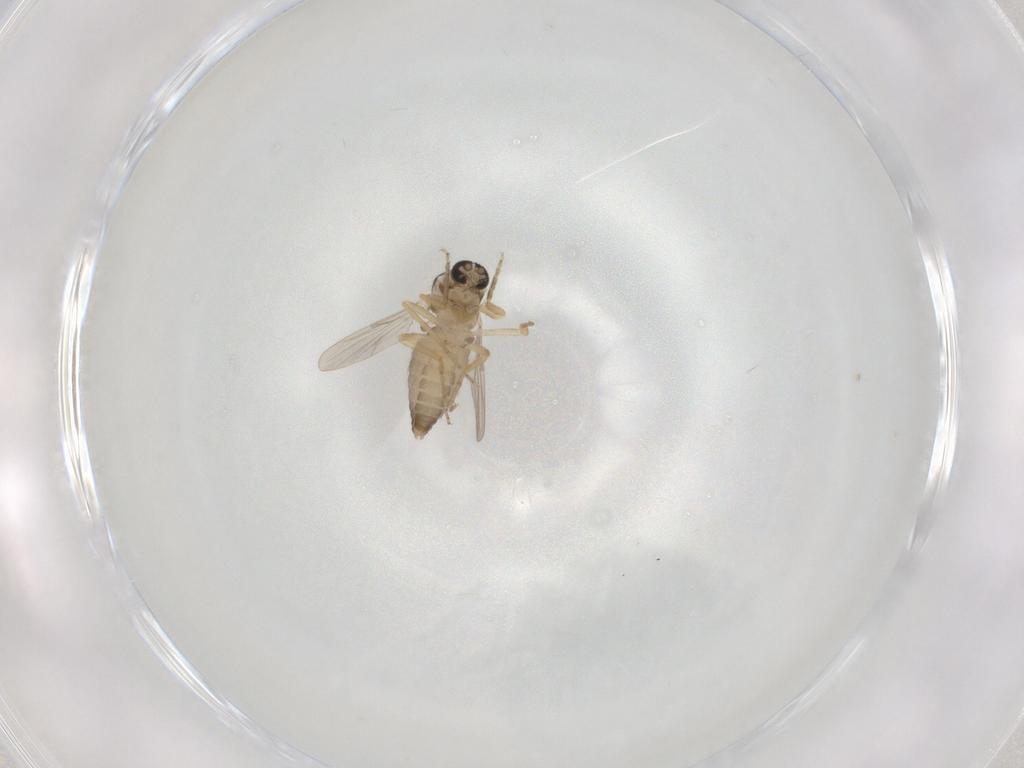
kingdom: Animalia
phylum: Arthropoda
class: Insecta
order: Diptera
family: Ceratopogonidae
